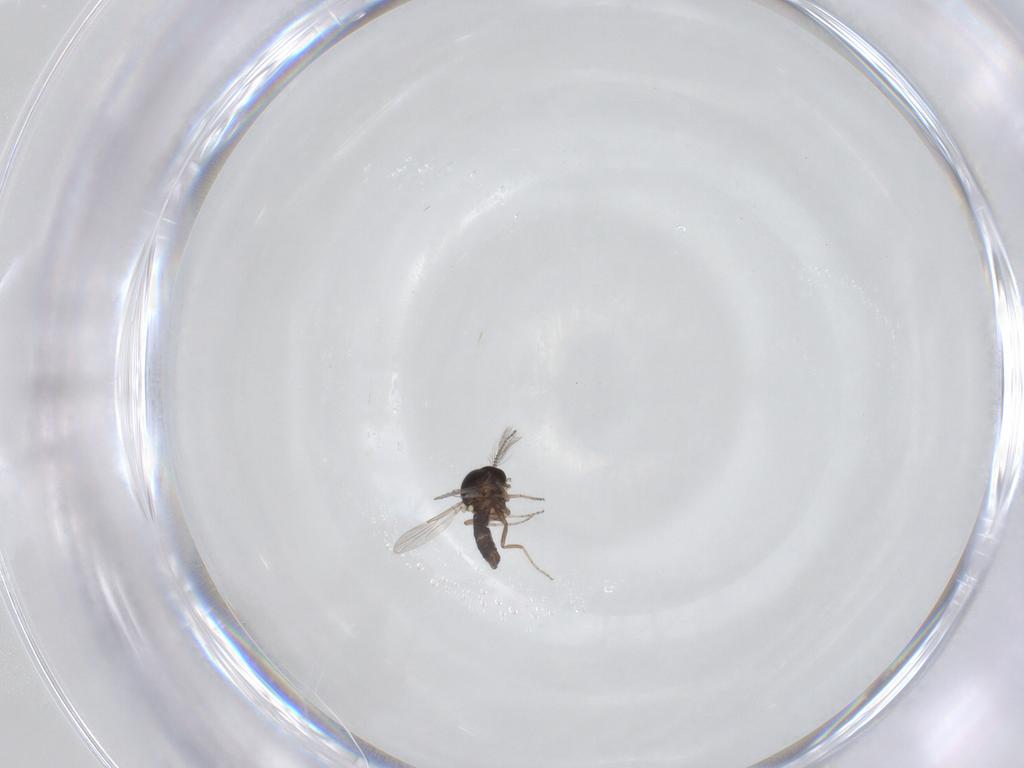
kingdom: Animalia
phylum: Arthropoda
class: Insecta
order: Diptera
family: Ceratopogonidae
